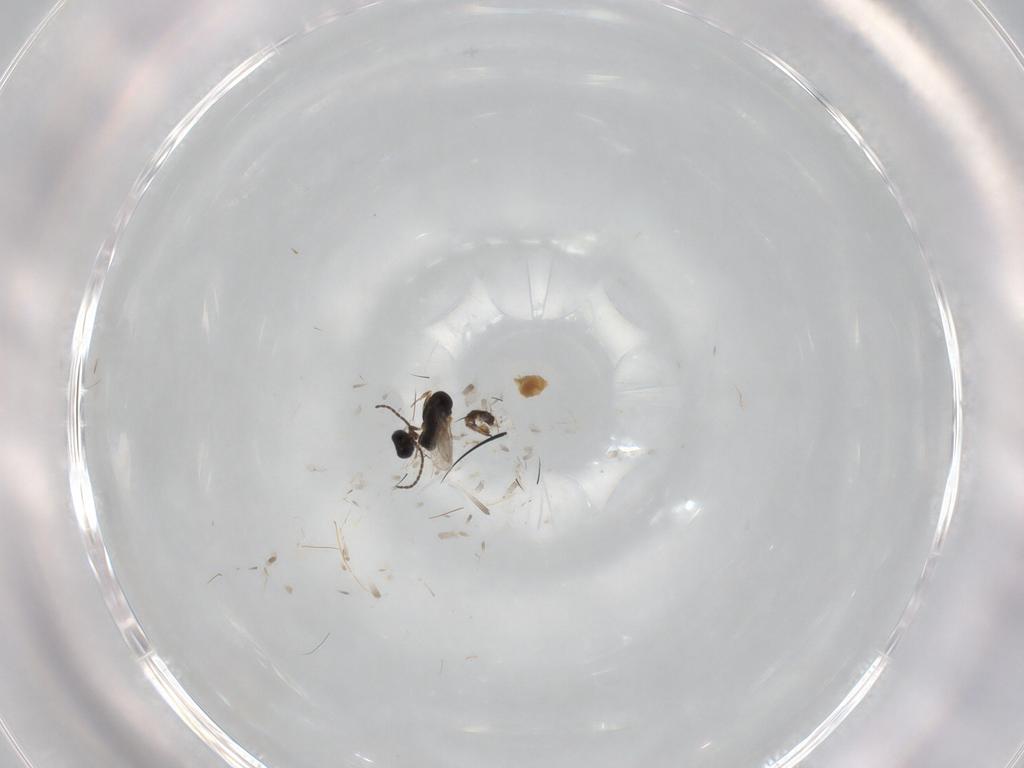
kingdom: Animalia
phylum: Arthropoda
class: Insecta
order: Hymenoptera
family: Scelionidae
